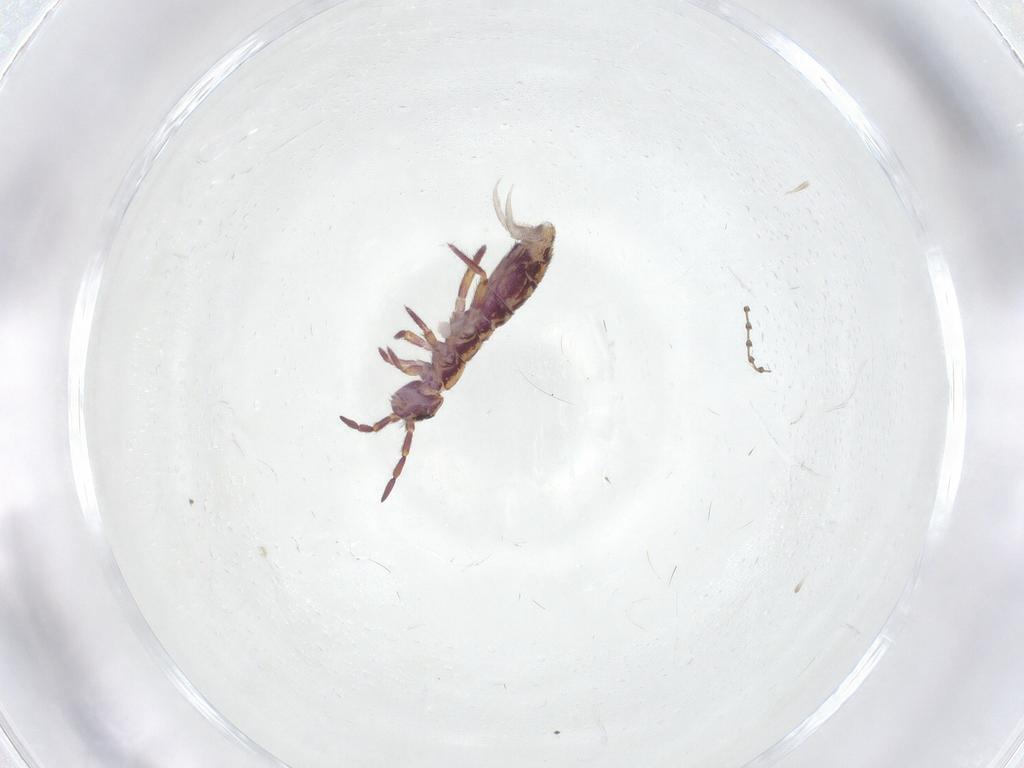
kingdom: Animalia
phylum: Arthropoda
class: Collembola
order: Entomobryomorpha
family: Isotomidae
